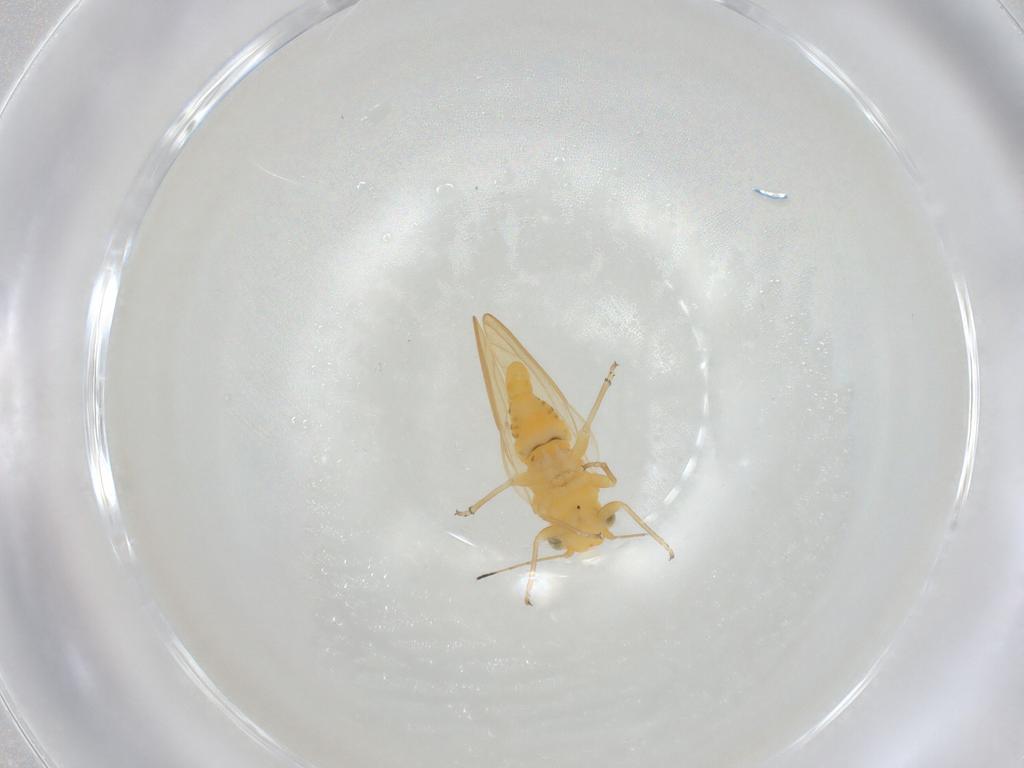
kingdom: Animalia
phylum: Arthropoda
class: Insecta
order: Hemiptera
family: Psylloidea_incertae_sedis
